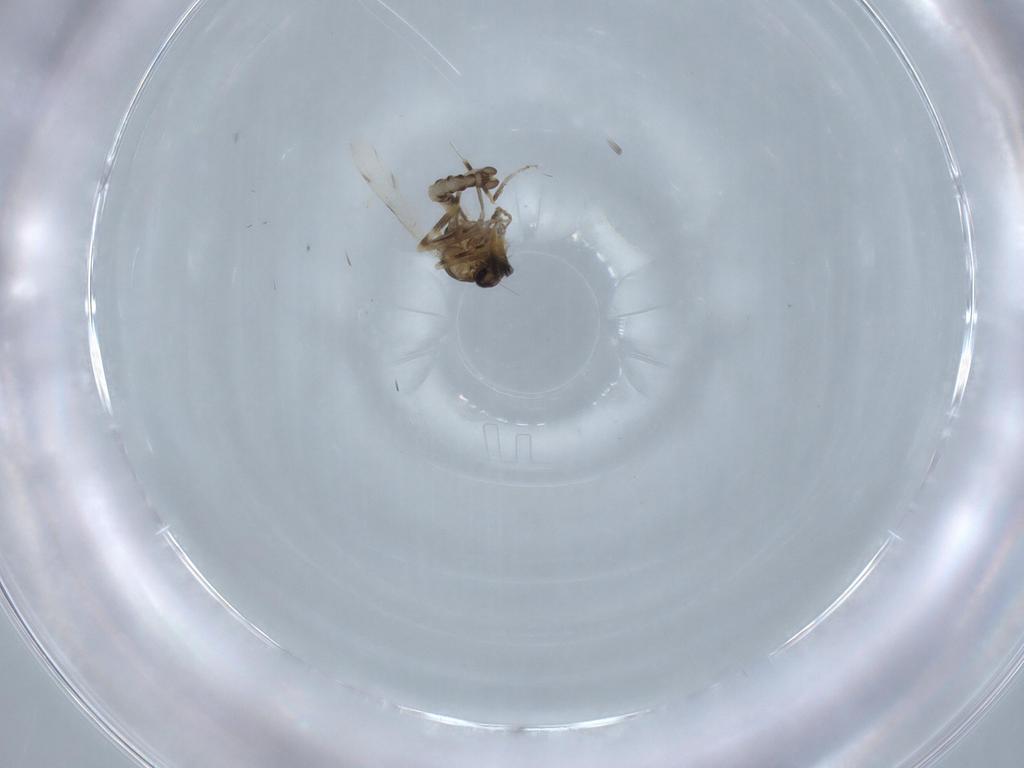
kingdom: Animalia
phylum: Arthropoda
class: Insecta
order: Diptera
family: Ceratopogonidae
